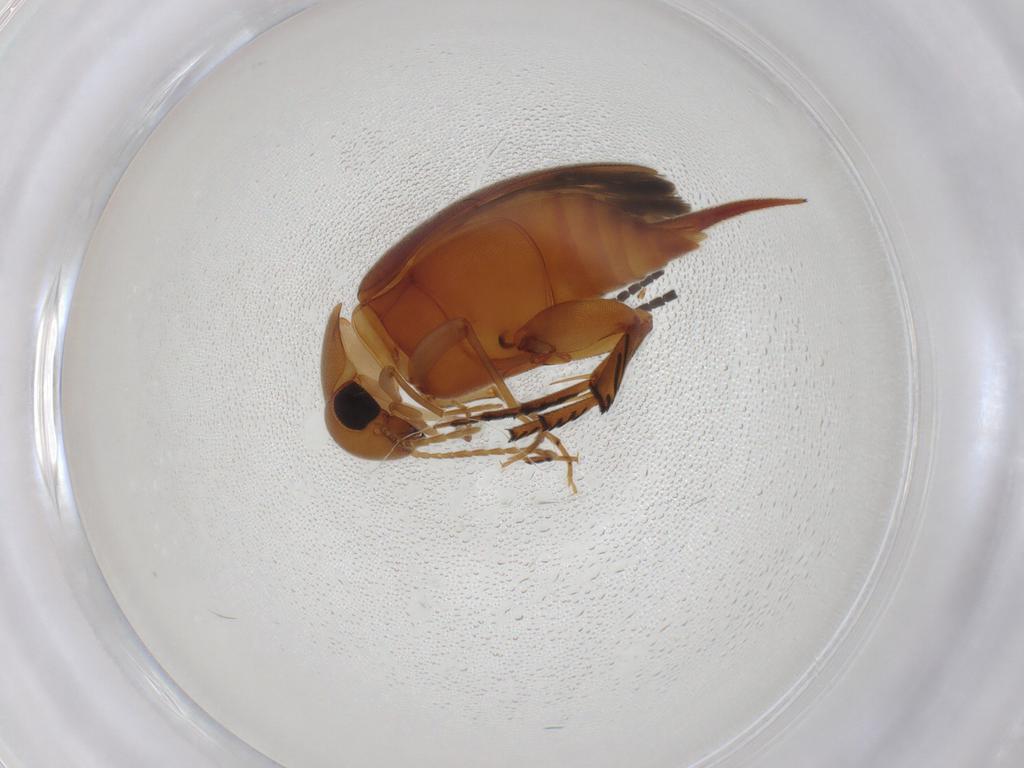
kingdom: Animalia
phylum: Arthropoda
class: Insecta
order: Coleoptera
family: Mordellidae
